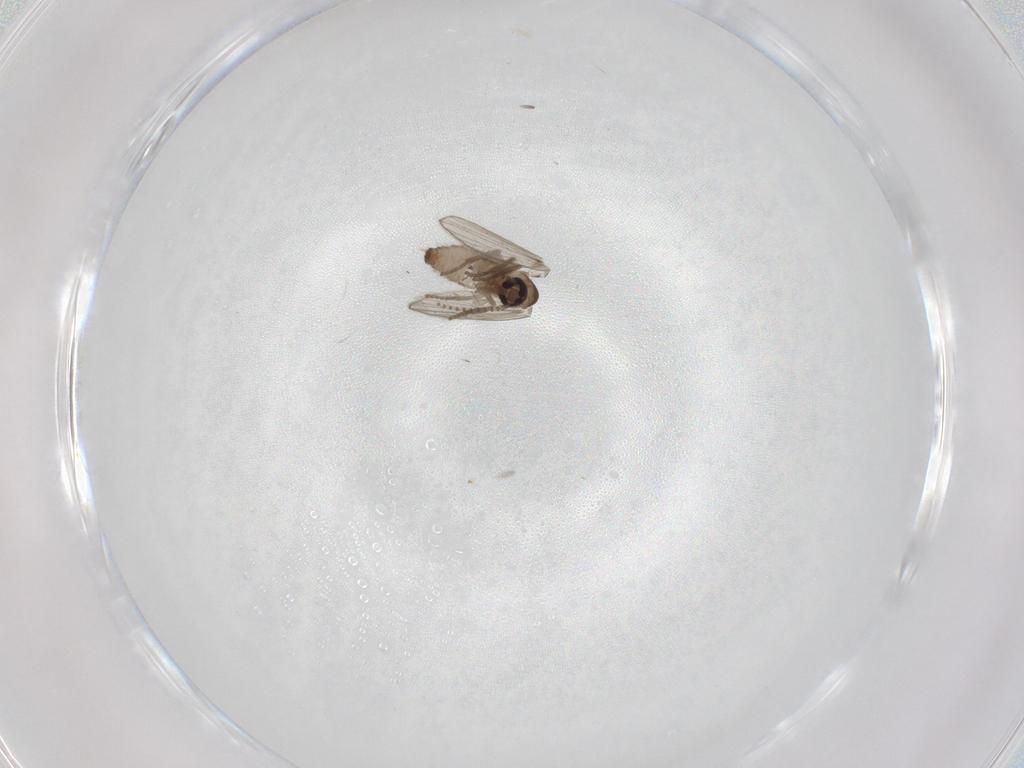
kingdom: Animalia
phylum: Arthropoda
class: Insecta
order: Diptera
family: Psychodidae
